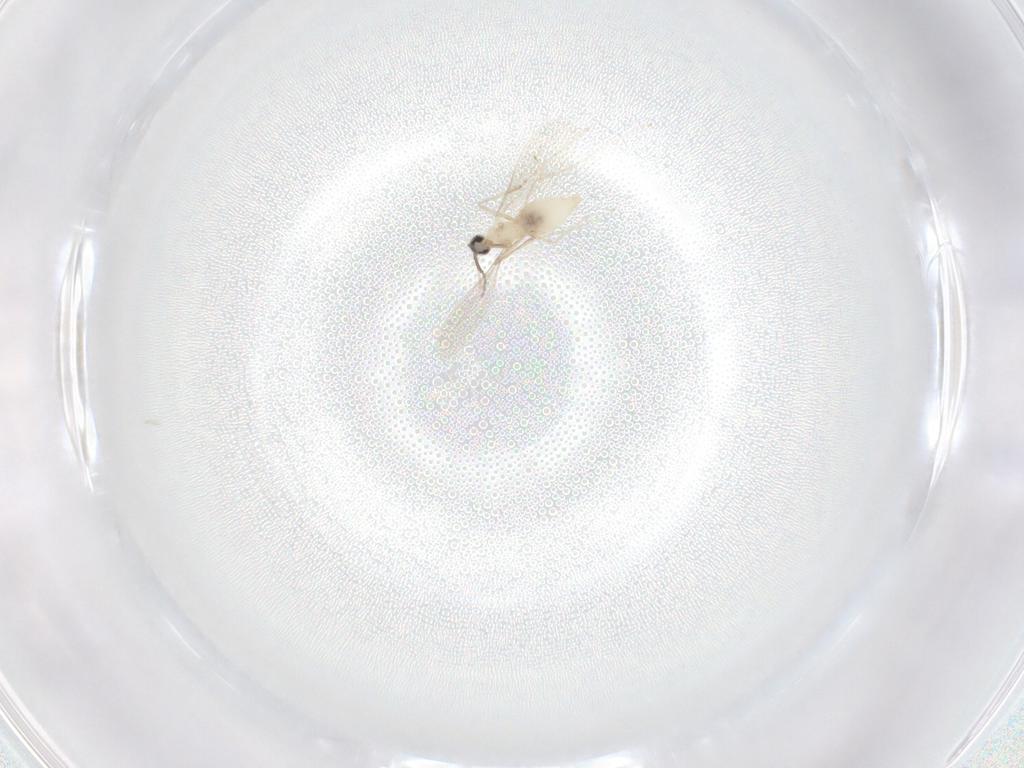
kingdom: Animalia
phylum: Arthropoda
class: Insecta
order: Diptera
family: Cecidomyiidae
